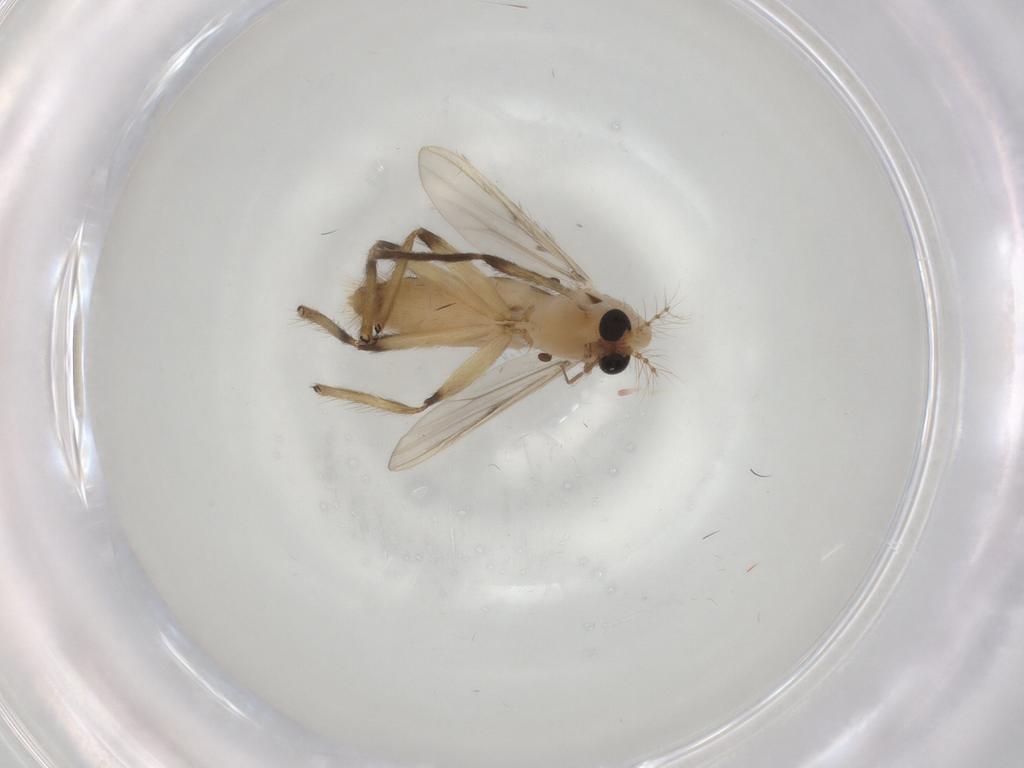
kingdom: Animalia
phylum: Arthropoda
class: Insecta
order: Diptera
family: Chironomidae
